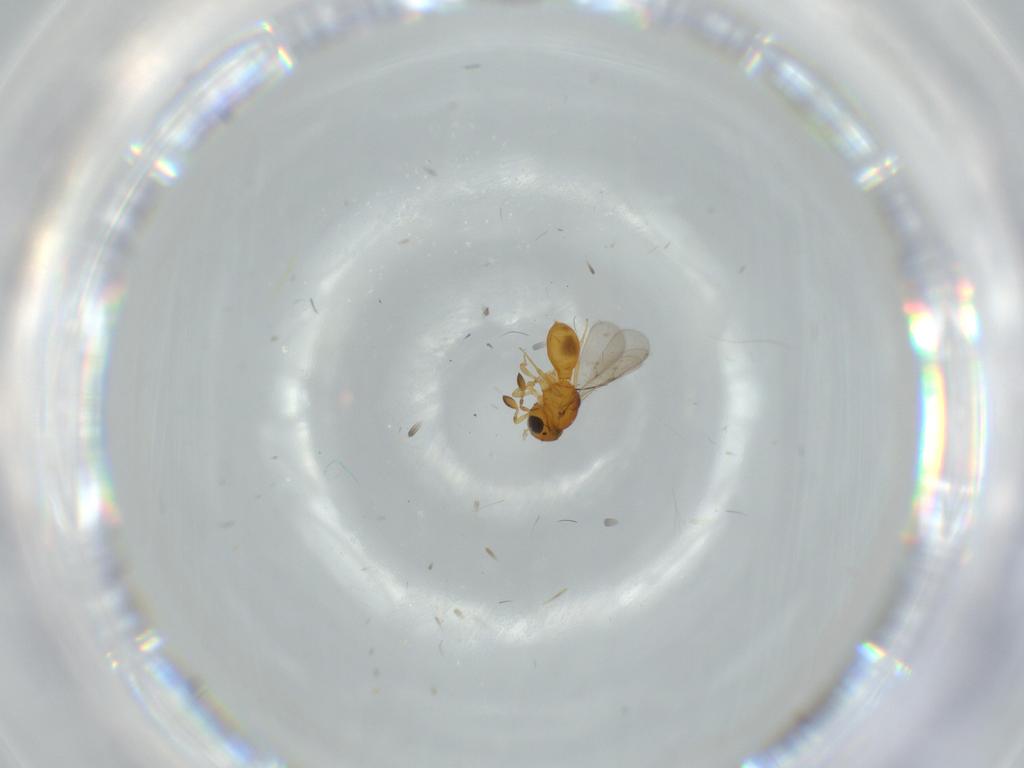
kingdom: Animalia
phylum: Arthropoda
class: Insecta
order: Hymenoptera
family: Scelionidae
